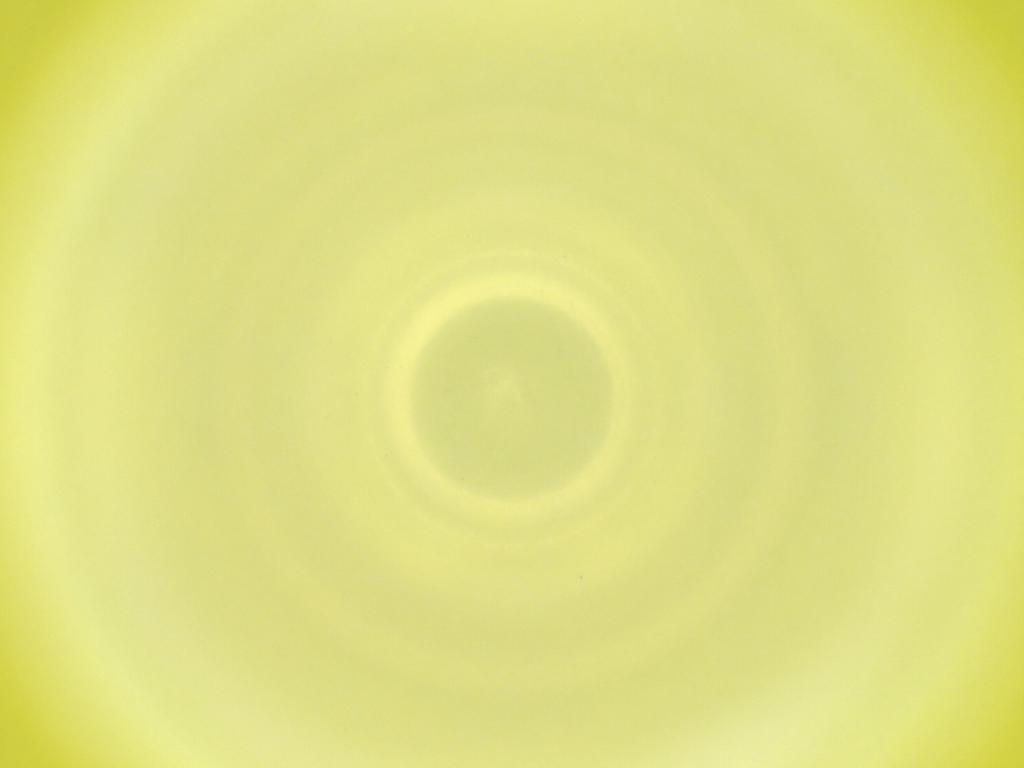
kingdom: Animalia
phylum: Arthropoda
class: Insecta
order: Diptera
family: Cecidomyiidae
